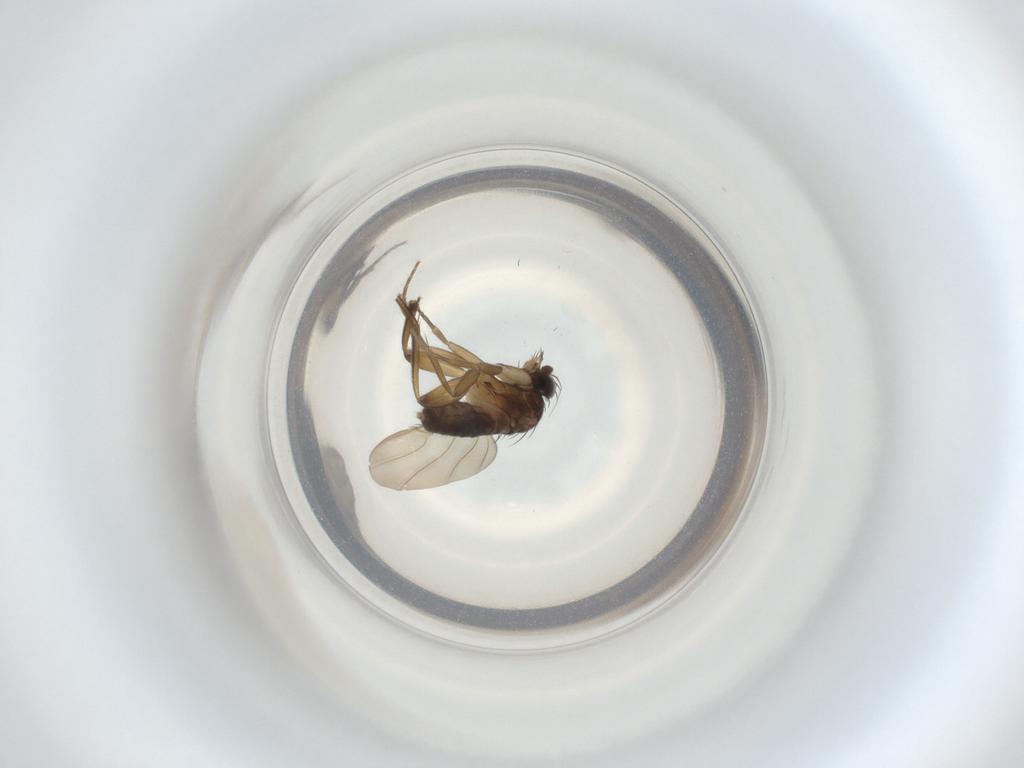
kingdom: Animalia
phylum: Arthropoda
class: Insecta
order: Diptera
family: Phoridae
